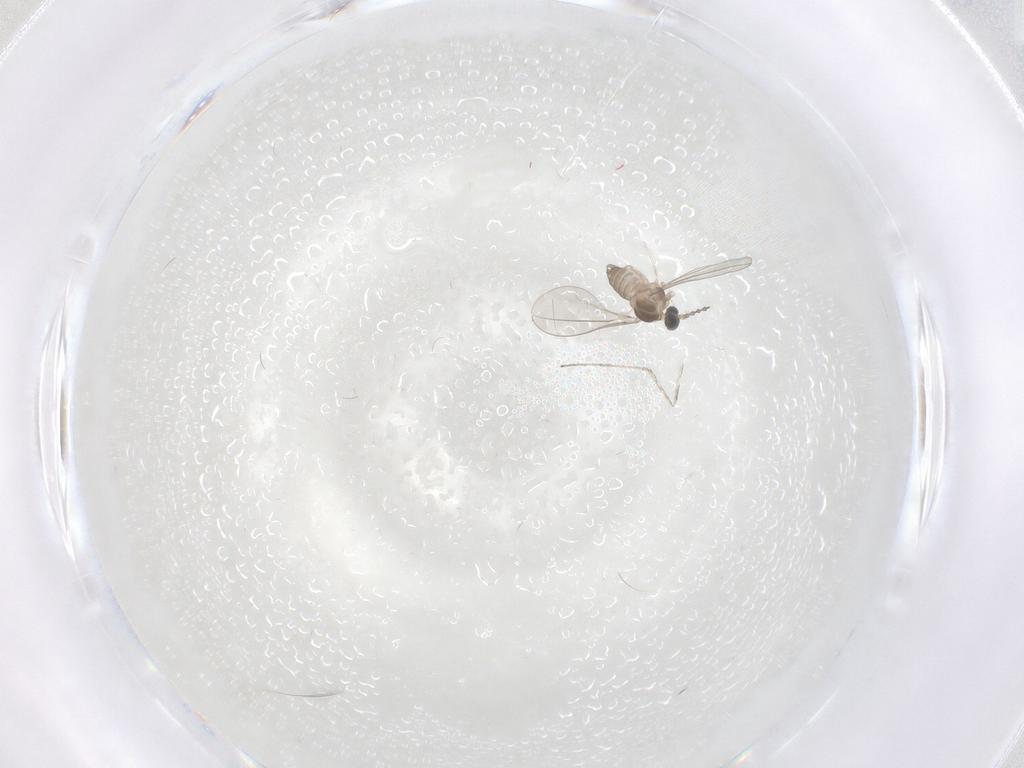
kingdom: Animalia
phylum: Arthropoda
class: Insecta
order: Diptera
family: Cecidomyiidae
